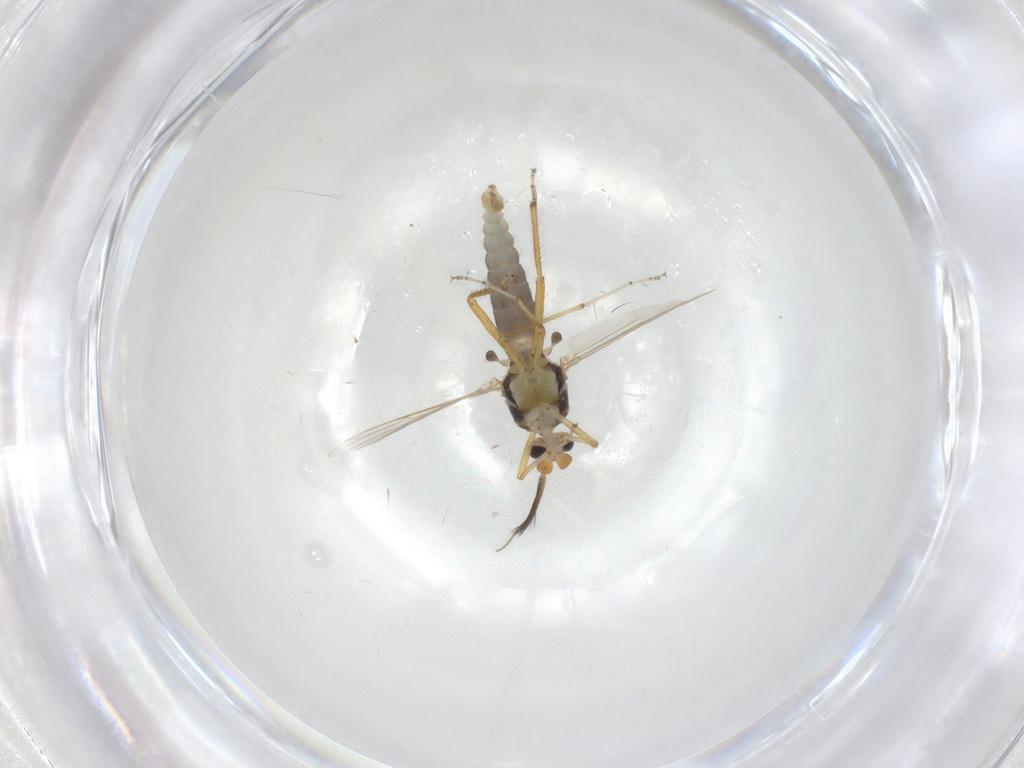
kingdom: Animalia
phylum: Arthropoda
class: Insecta
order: Diptera
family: Ceratopogonidae
